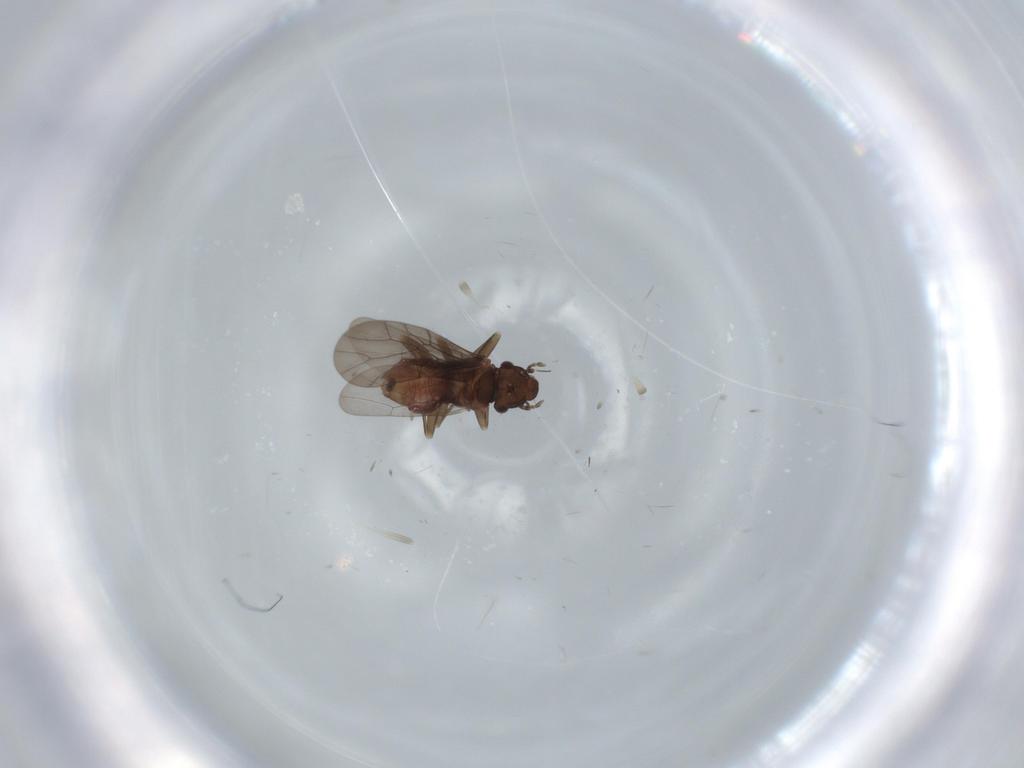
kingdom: Animalia
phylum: Arthropoda
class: Insecta
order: Psocodea
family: Lepidopsocidae
